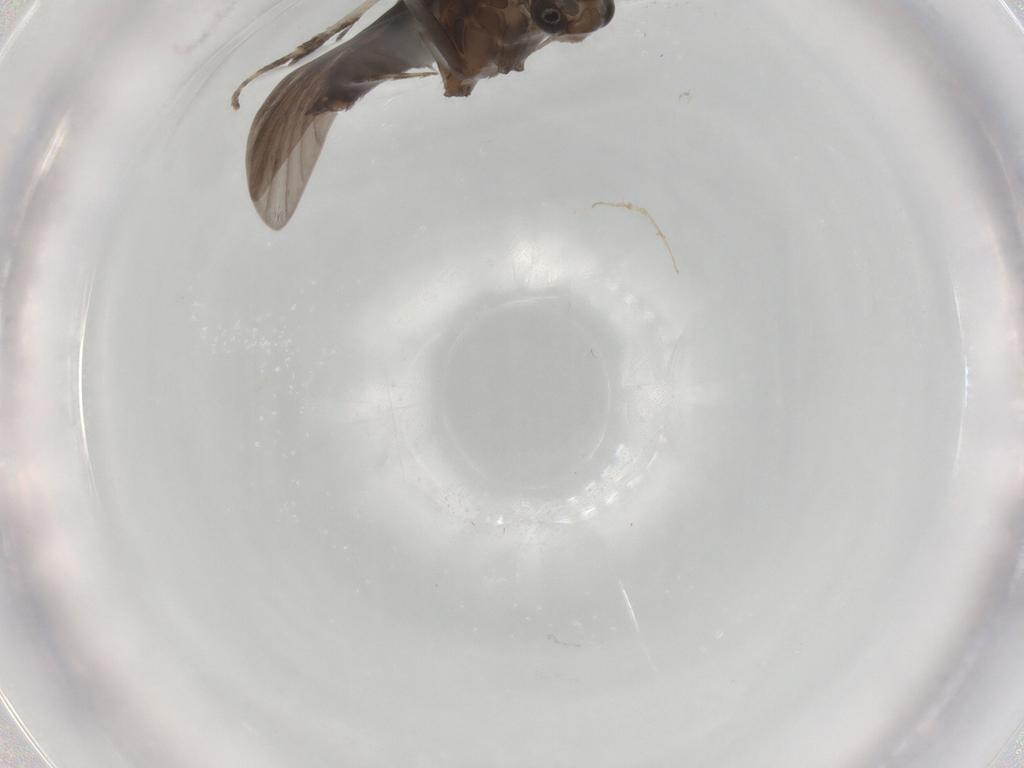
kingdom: Animalia
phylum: Arthropoda
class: Insecta
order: Trichoptera
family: Xiphocentronidae
